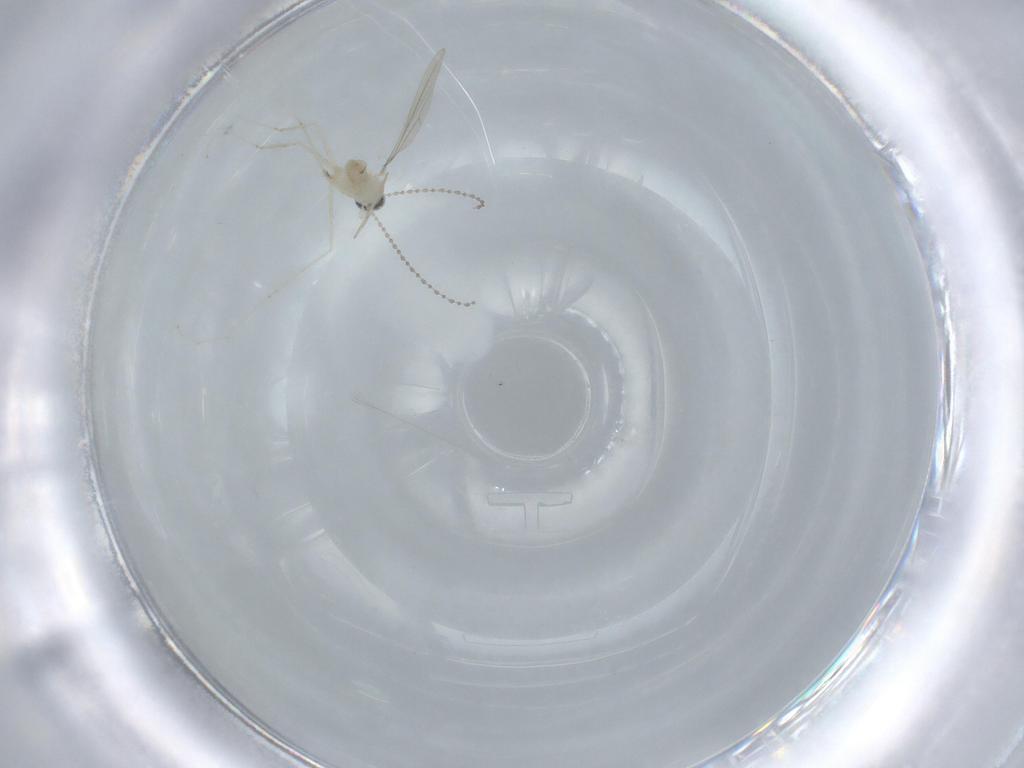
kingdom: Animalia
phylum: Arthropoda
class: Insecta
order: Diptera
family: Cecidomyiidae
